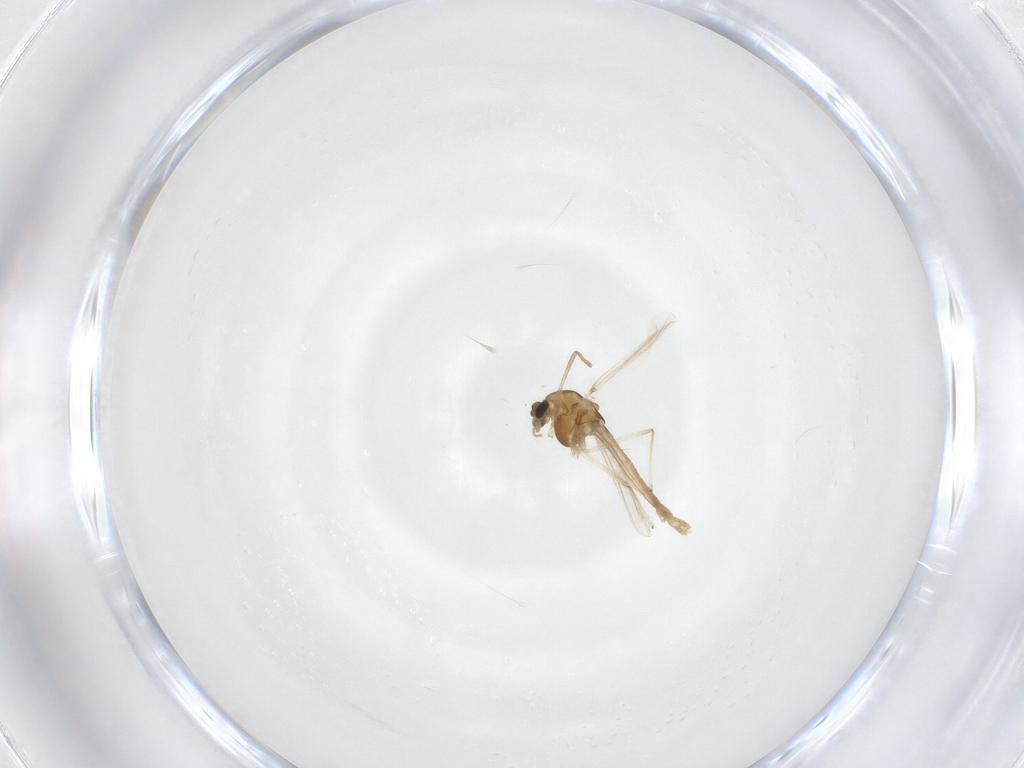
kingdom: Animalia
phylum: Arthropoda
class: Insecta
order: Diptera
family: Chironomidae
